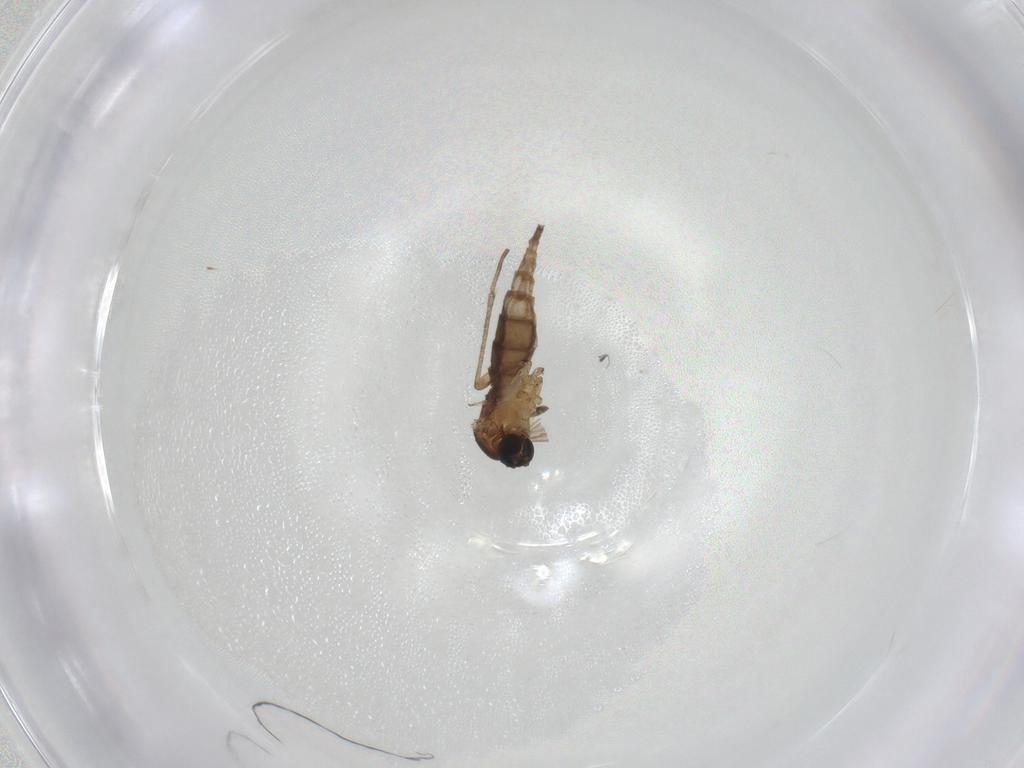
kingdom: Animalia
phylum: Arthropoda
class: Insecta
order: Diptera
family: Sciaridae
